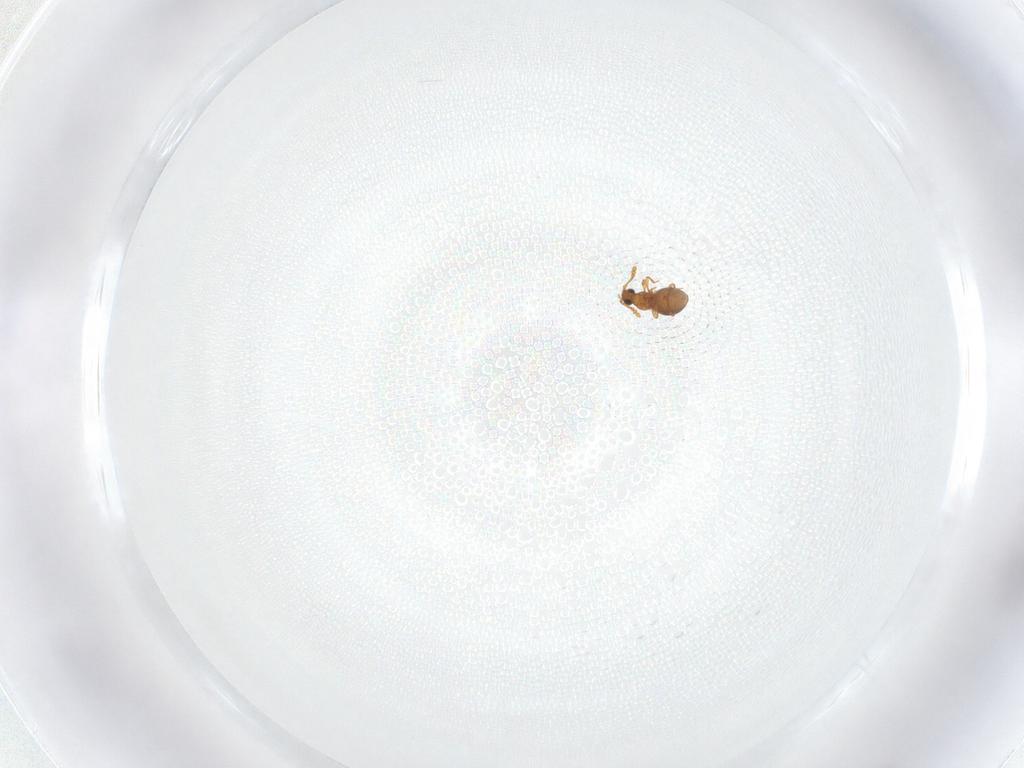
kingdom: Animalia
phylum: Arthropoda
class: Insecta
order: Coleoptera
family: Staphylinidae
